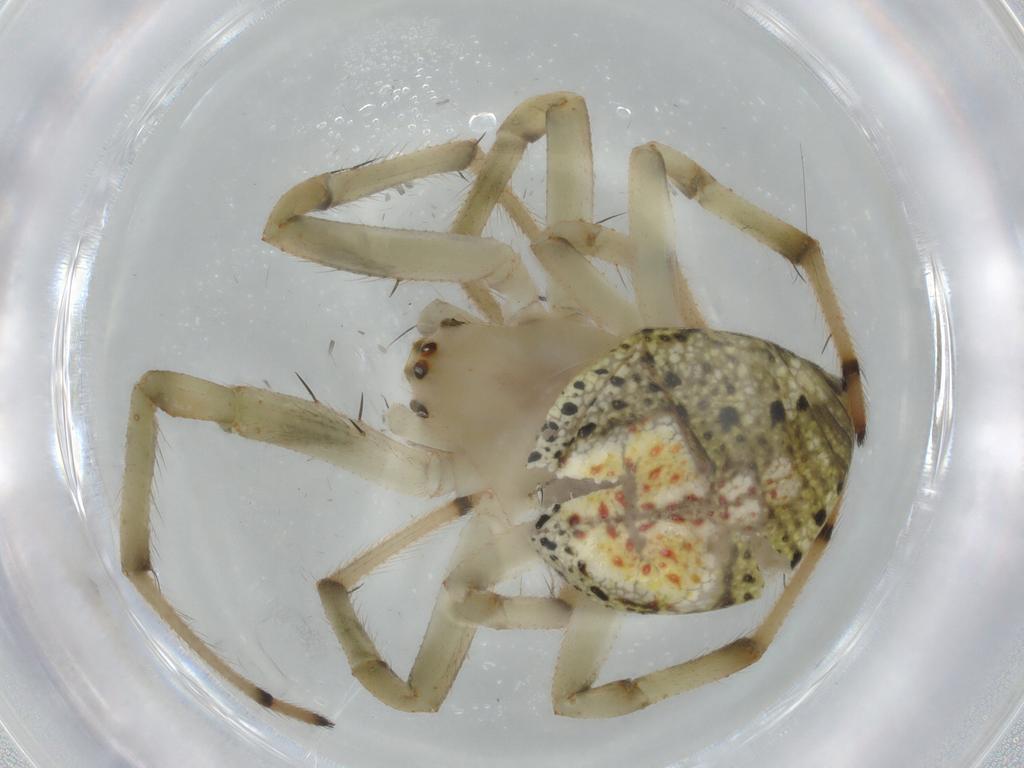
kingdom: Animalia
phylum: Arthropoda
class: Arachnida
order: Araneae
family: Araneidae
